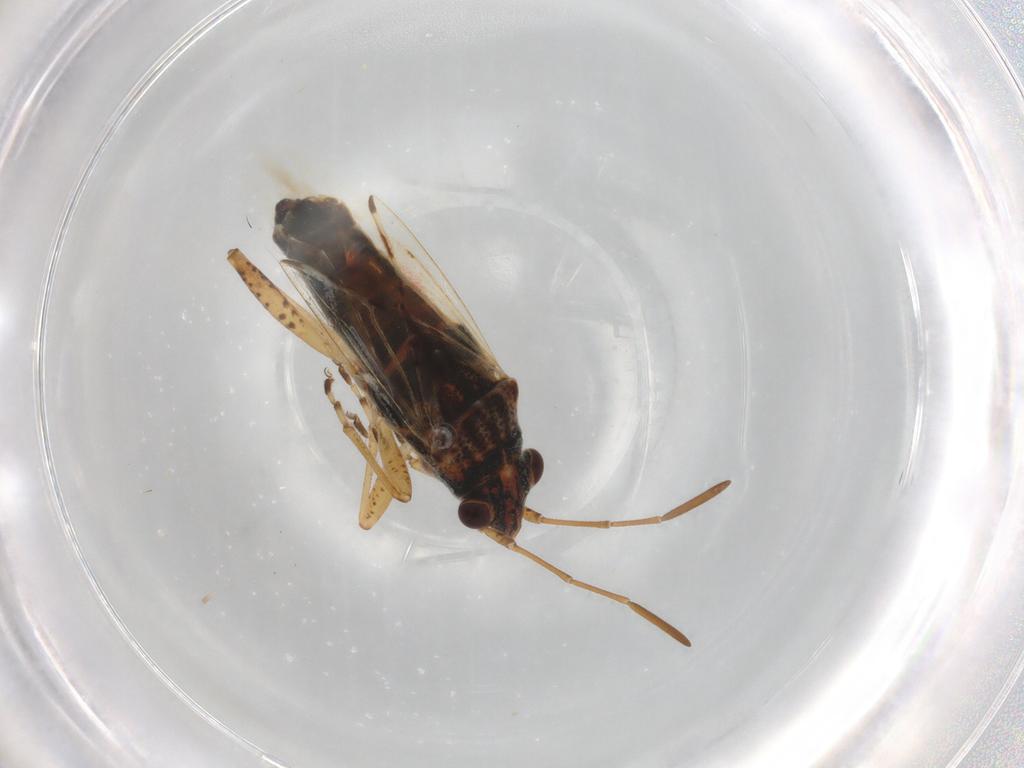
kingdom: Animalia
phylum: Arthropoda
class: Insecta
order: Hemiptera
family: Lygaeidae
